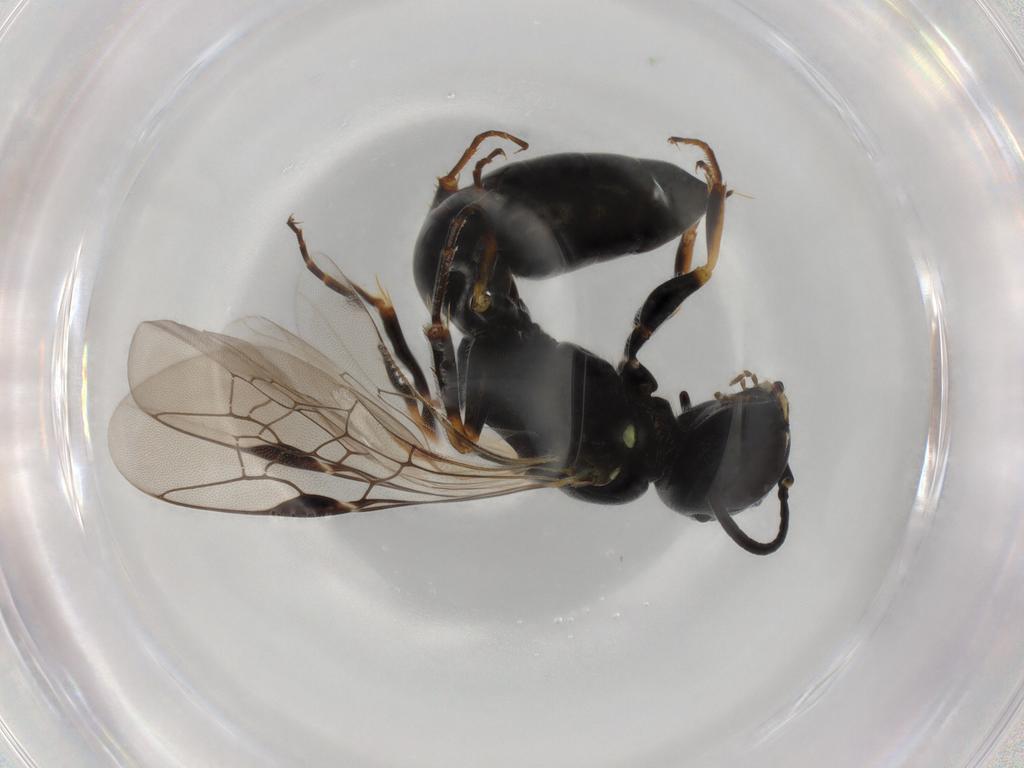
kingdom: Animalia
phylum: Arthropoda
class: Insecta
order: Hymenoptera
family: Crabronidae
